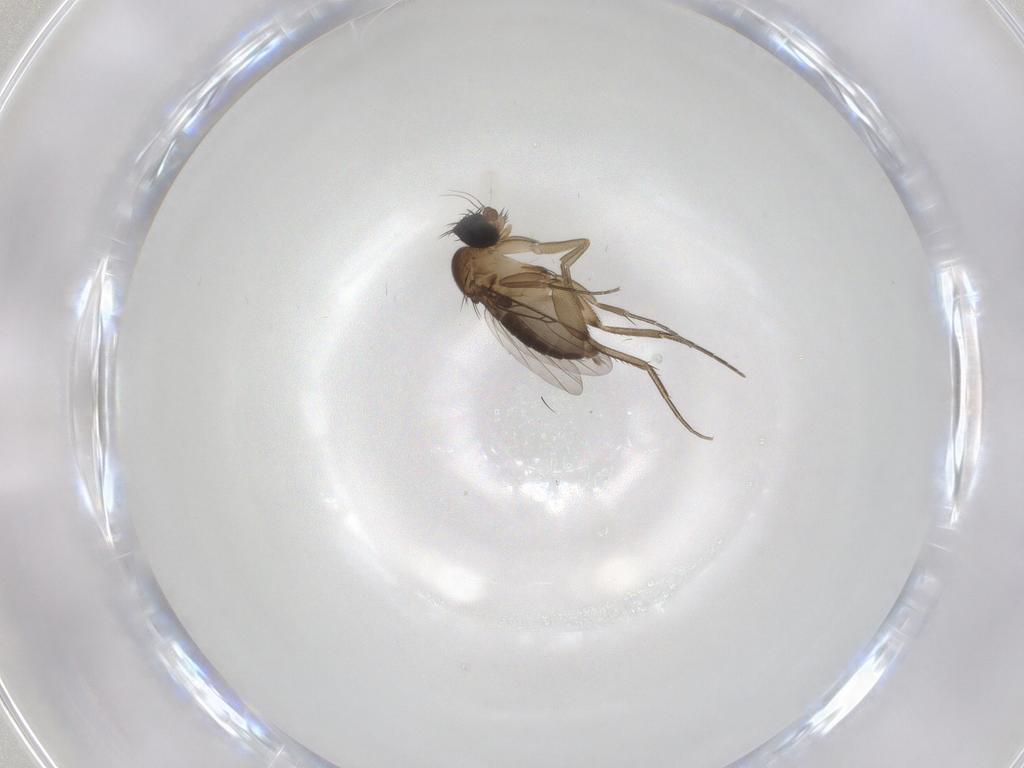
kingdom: Animalia
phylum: Arthropoda
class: Insecta
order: Diptera
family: Phoridae
